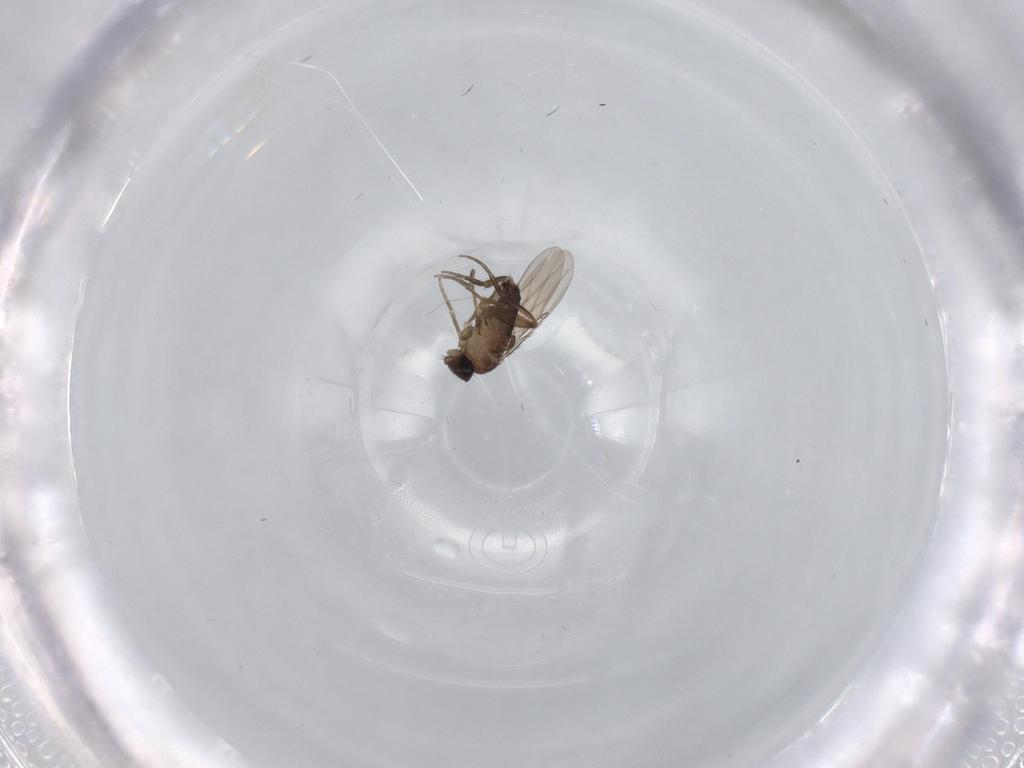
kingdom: Animalia
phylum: Arthropoda
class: Insecta
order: Diptera
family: Phoridae
